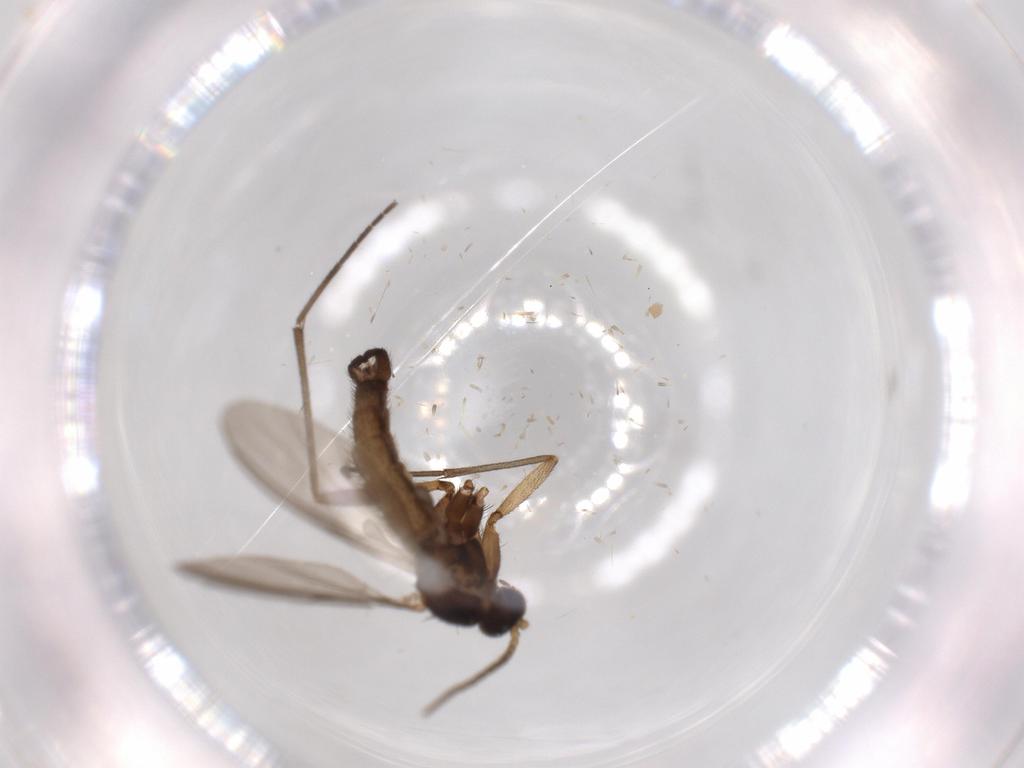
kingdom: Animalia
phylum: Arthropoda
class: Insecta
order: Diptera
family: Sciaridae
